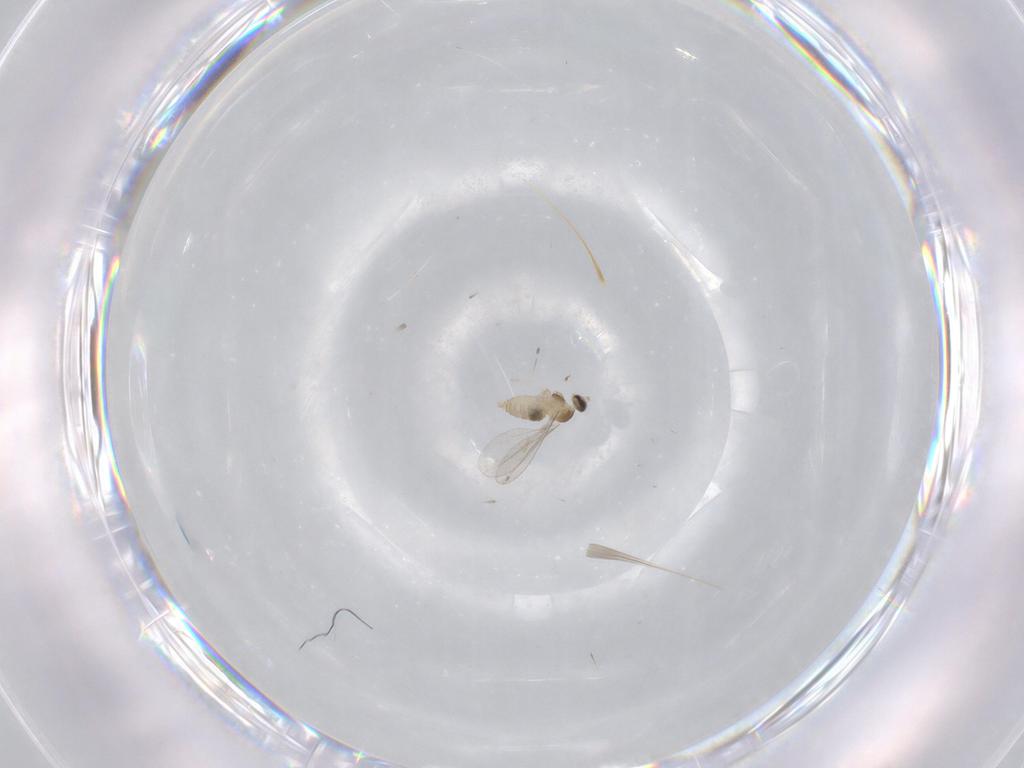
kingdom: Animalia
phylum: Arthropoda
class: Insecta
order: Diptera
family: Cecidomyiidae
